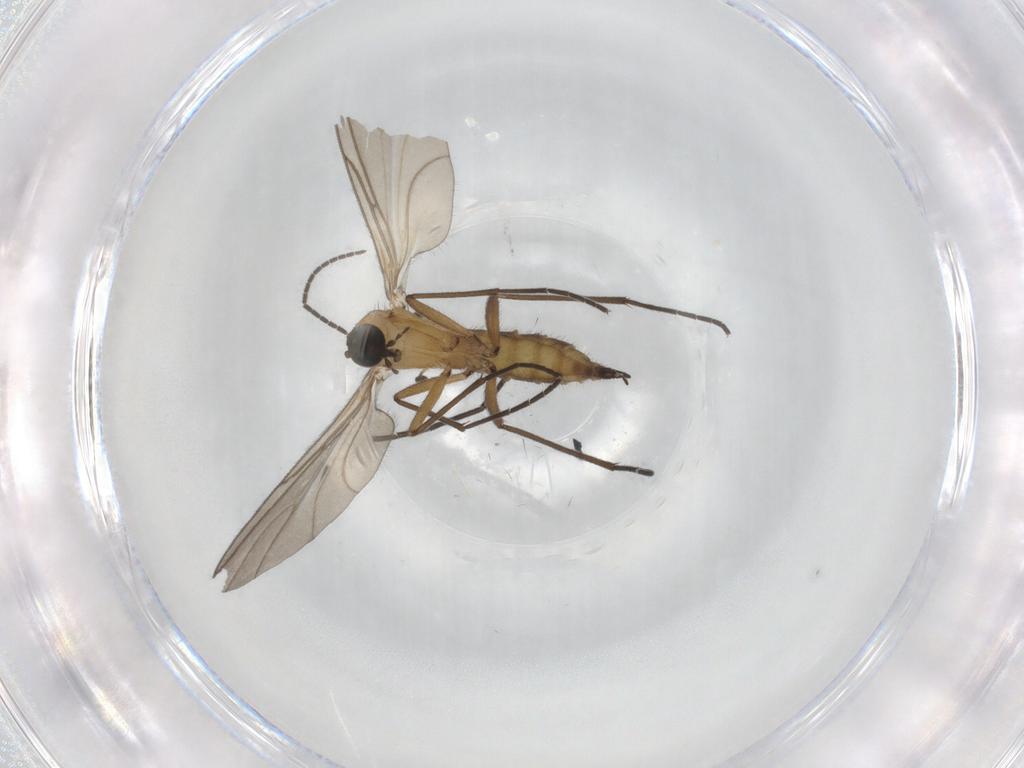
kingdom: Animalia
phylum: Arthropoda
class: Insecta
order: Diptera
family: Sciaridae
